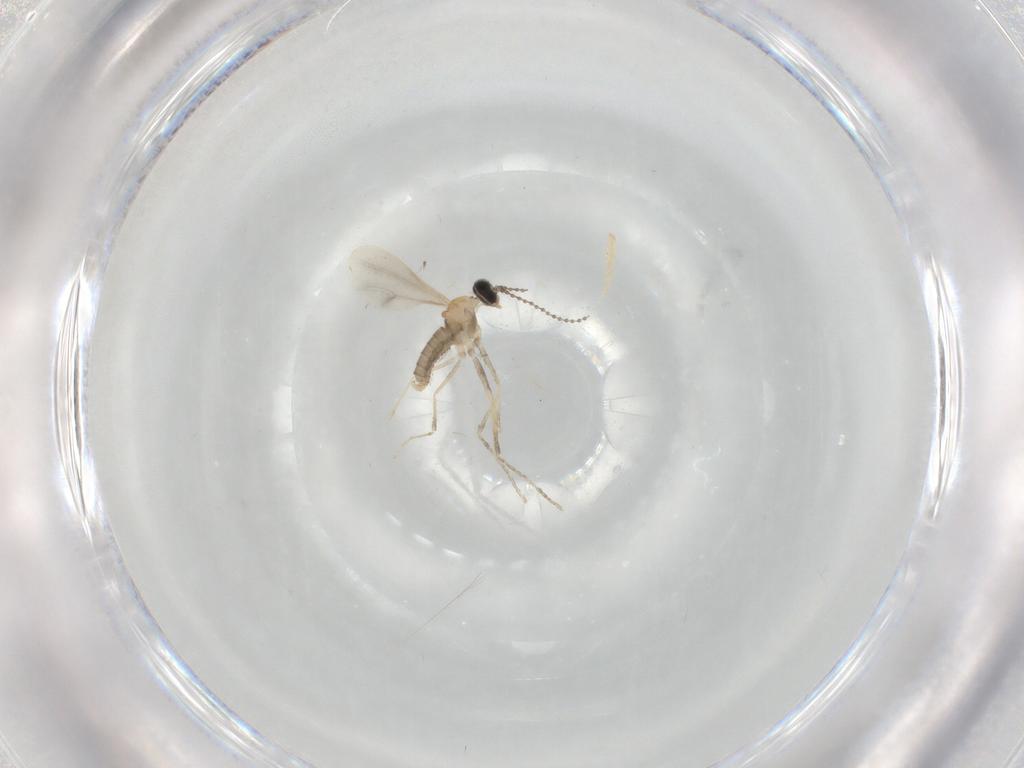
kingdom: Animalia
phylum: Arthropoda
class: Insecta
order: Diptera
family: Cecidomyiidae
